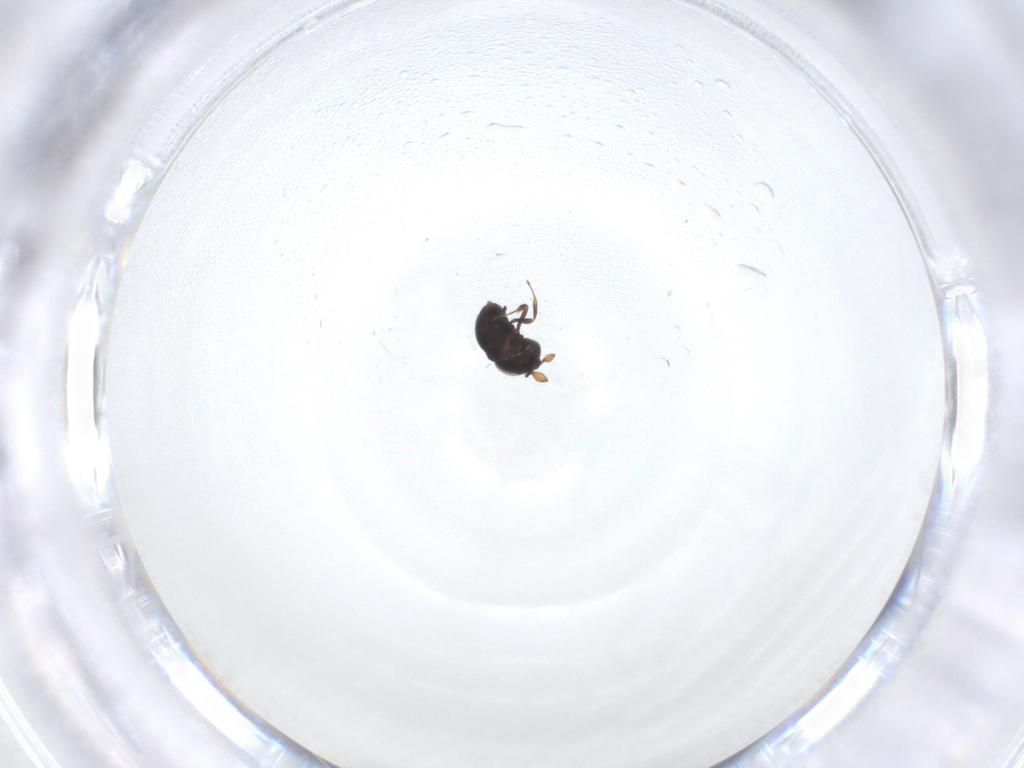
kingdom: Animalia
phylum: Arthropoda
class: Insecta
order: Hymenoptera
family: Scelionidae
